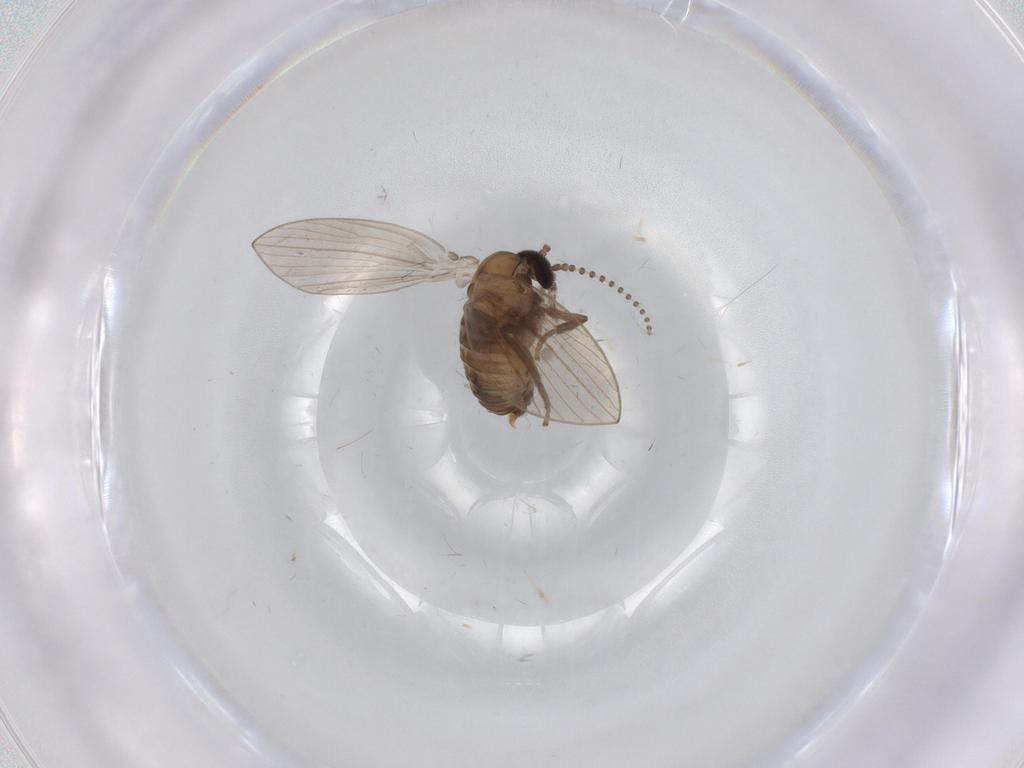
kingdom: Animalia
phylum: Arthropoda
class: Insecta
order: Diptera
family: Psychodidae
